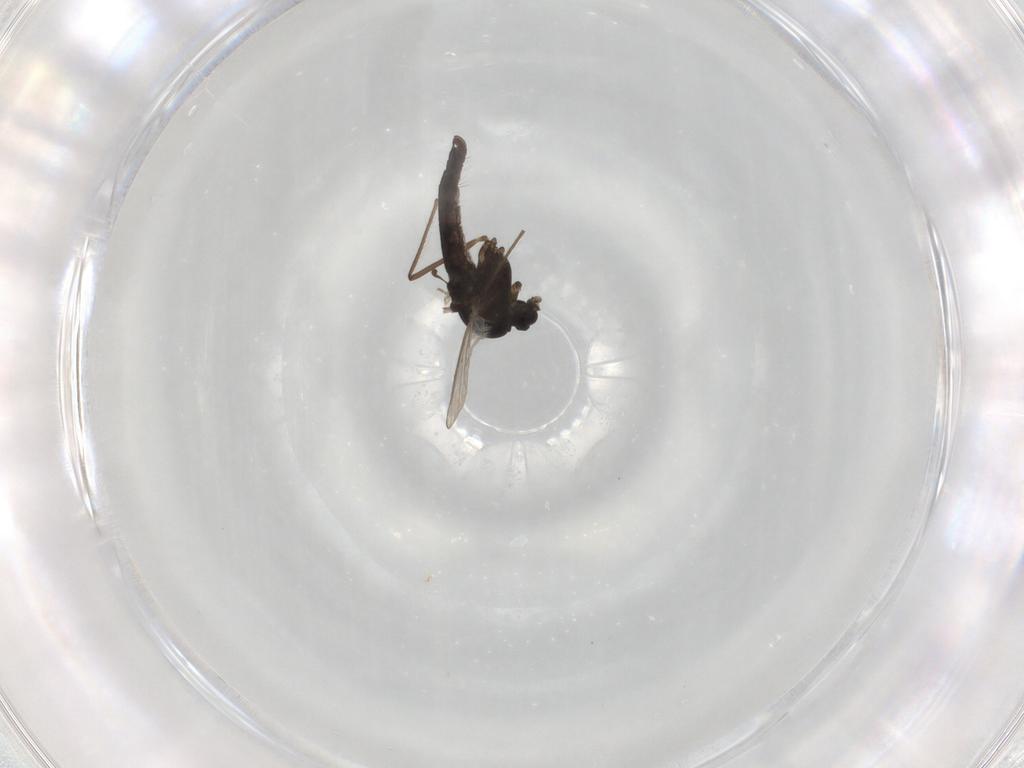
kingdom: Animalia
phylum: Arthropoda
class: Insecta
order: Diptera
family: Chironomidae
